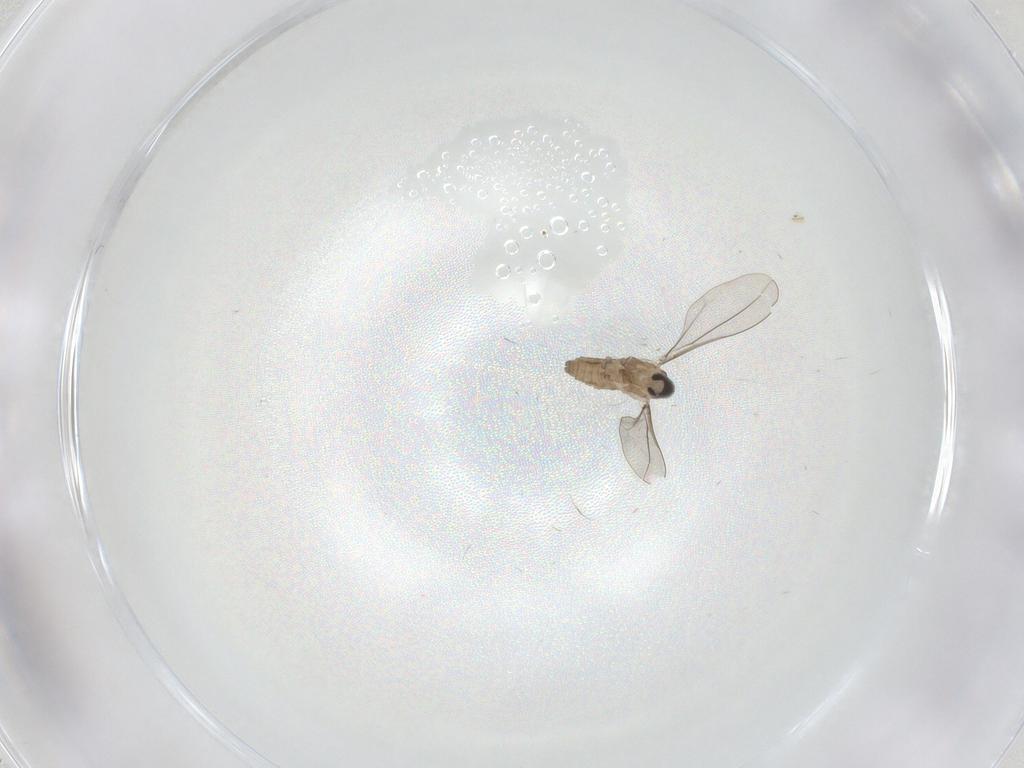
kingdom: Animalia
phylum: Arthropoda
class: Insecta
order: Diptera
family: Cecidomyiidae
